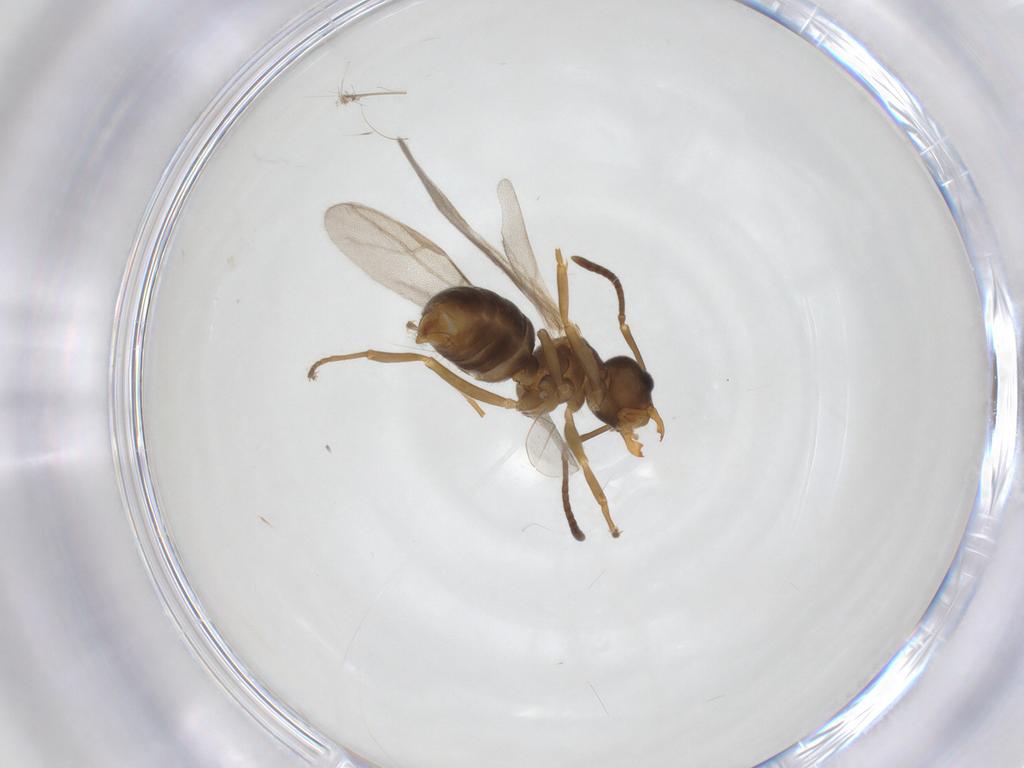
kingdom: Animalia
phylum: Arthropoda
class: Insecta
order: Hymenoptera
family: Formicidae
